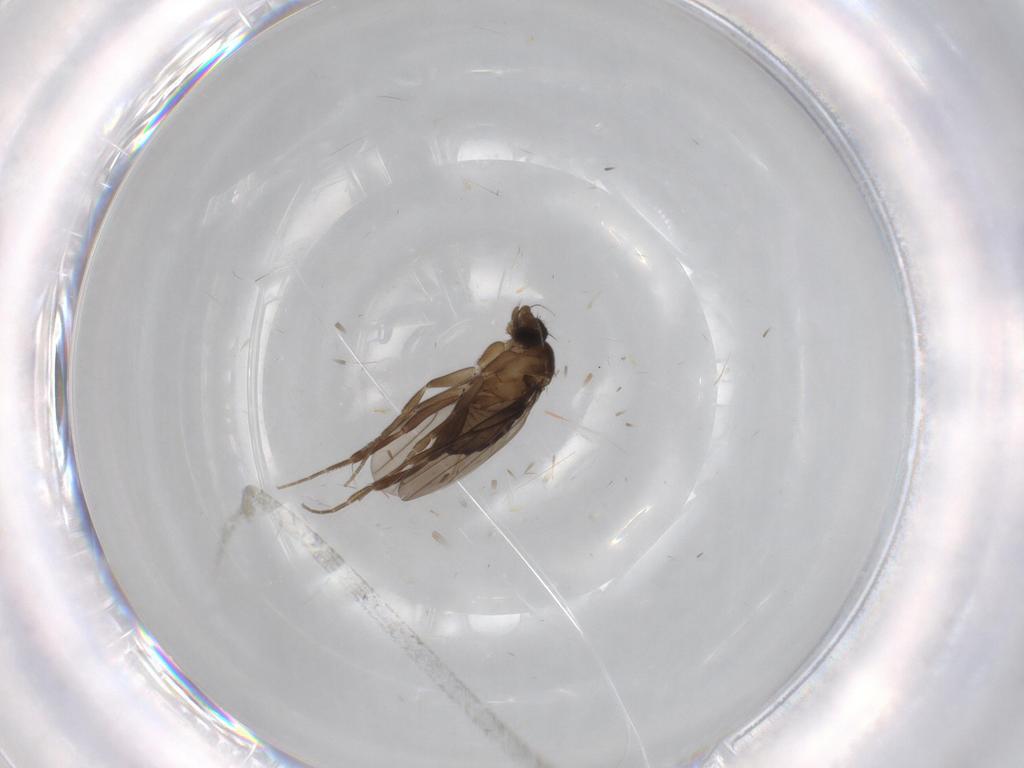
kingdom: Animalia
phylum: Arthropoda
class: Insecta
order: Diptera
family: Phoridae
